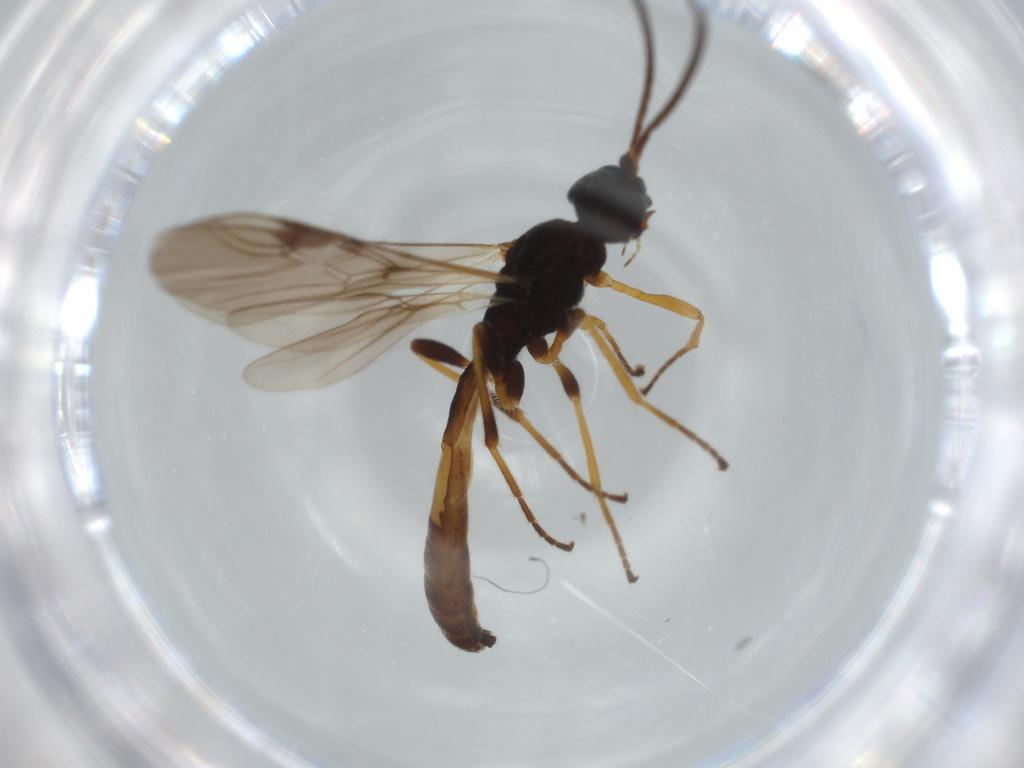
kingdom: Animalia
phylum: Arthropoda
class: Insecta
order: Hymenoptera
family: Braconidae
